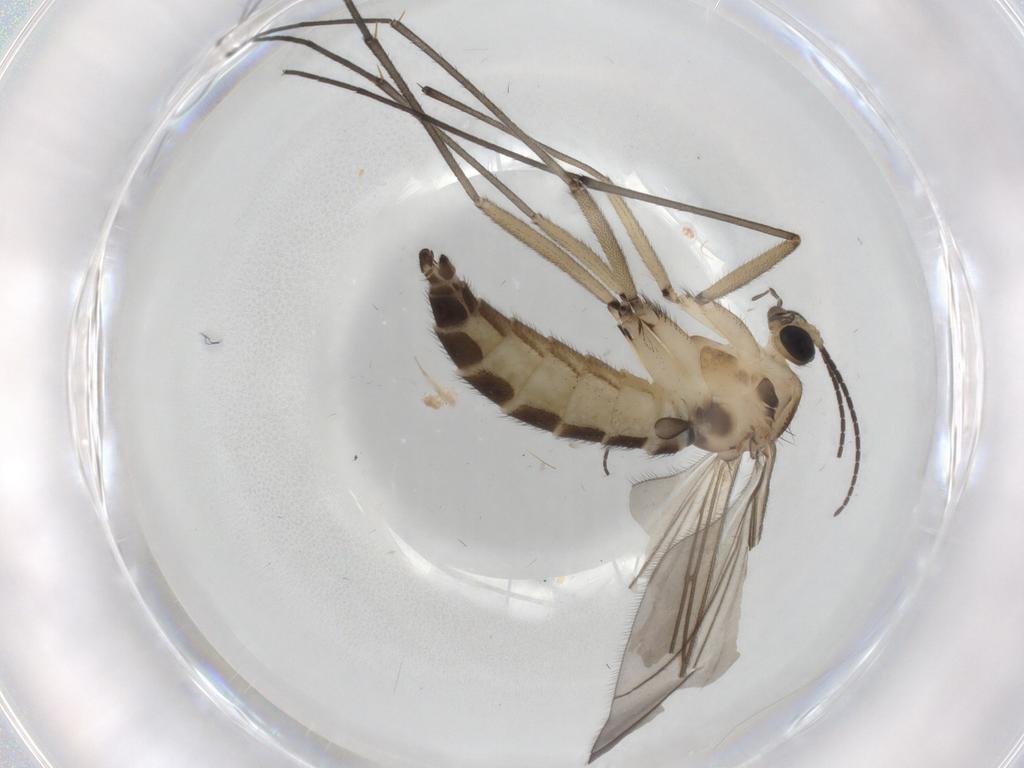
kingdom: Animalia
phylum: Arthropoda
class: Insecta
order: Diptera
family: Sciaridae
